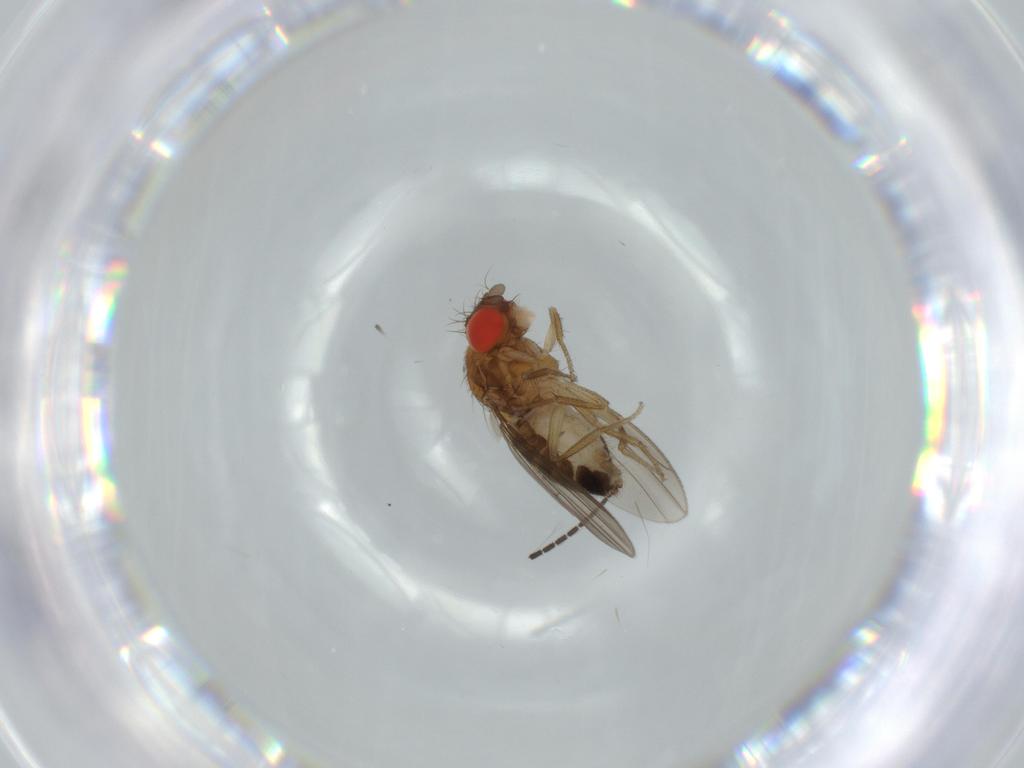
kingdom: Animalia
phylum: Arthropoda
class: Insecta
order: Diptera
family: Drosophilidae
